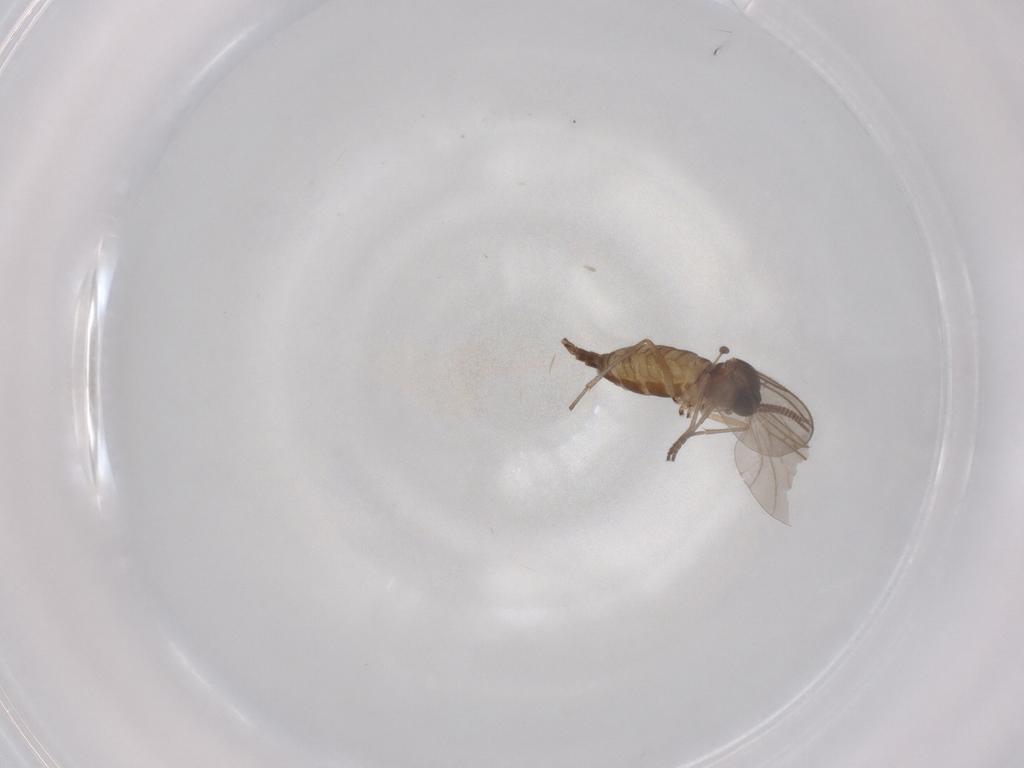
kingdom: Animalia
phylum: Arthropoda
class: Insecta
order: Diptera
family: Sciaridae
